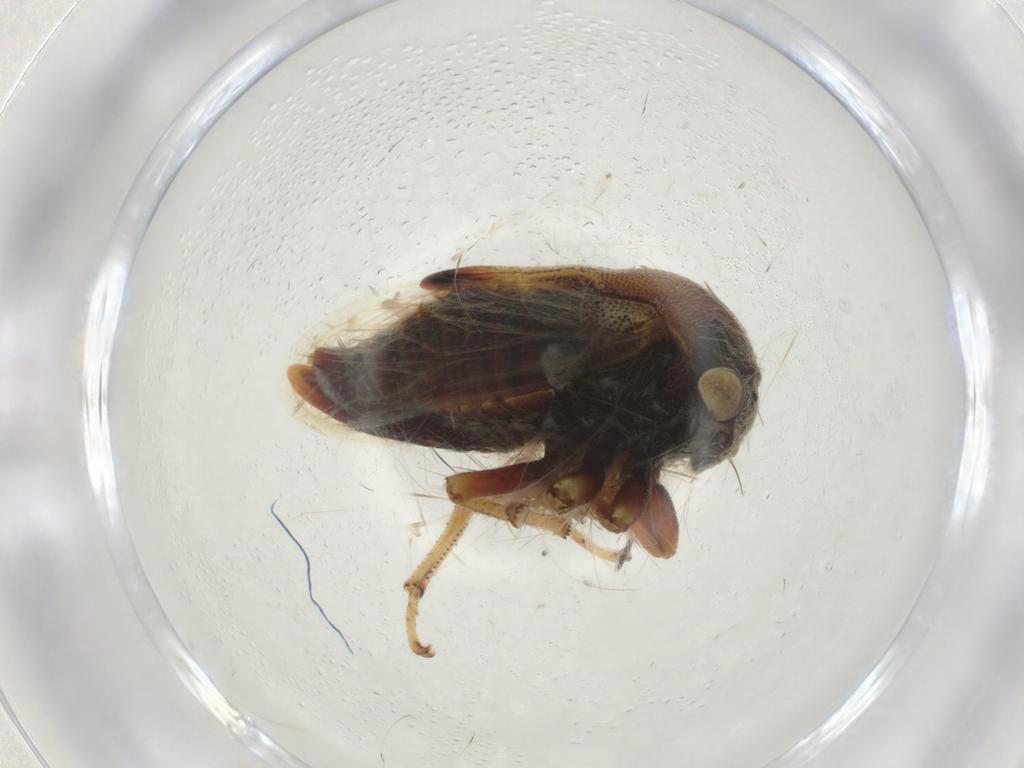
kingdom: Animalia
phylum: Arthropoda
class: Insecta
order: Hemiptera
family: Membracidae
